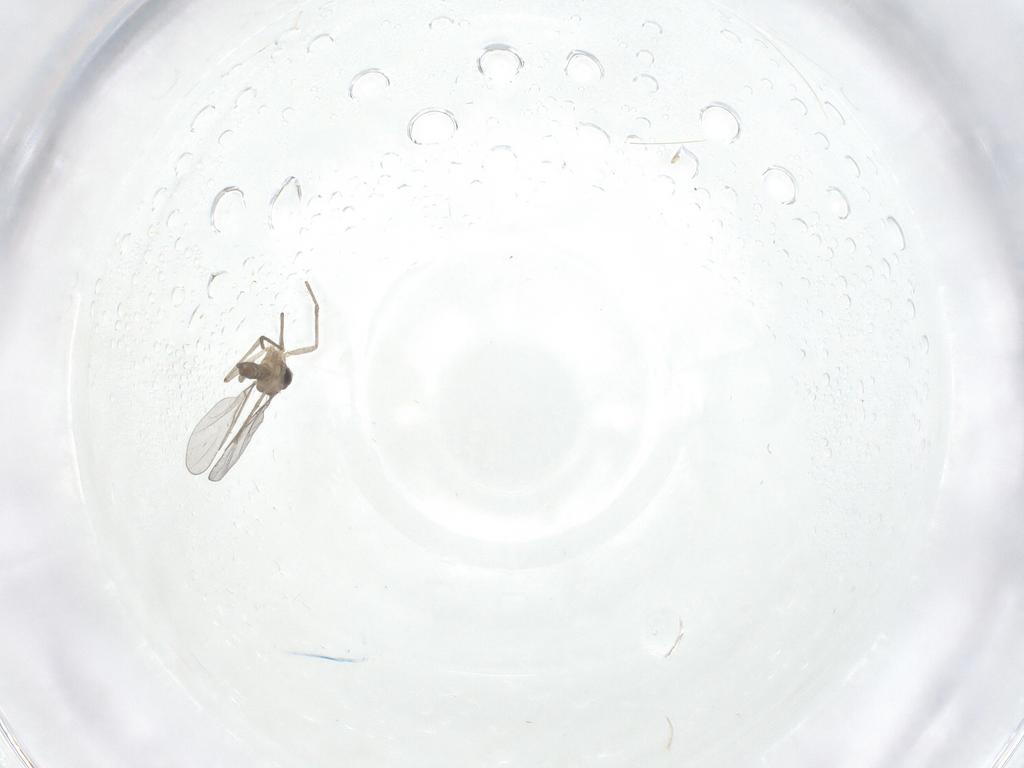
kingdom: Animalia
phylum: Arthropoda
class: Insecta
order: Diptera
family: Cecidomyiidae
